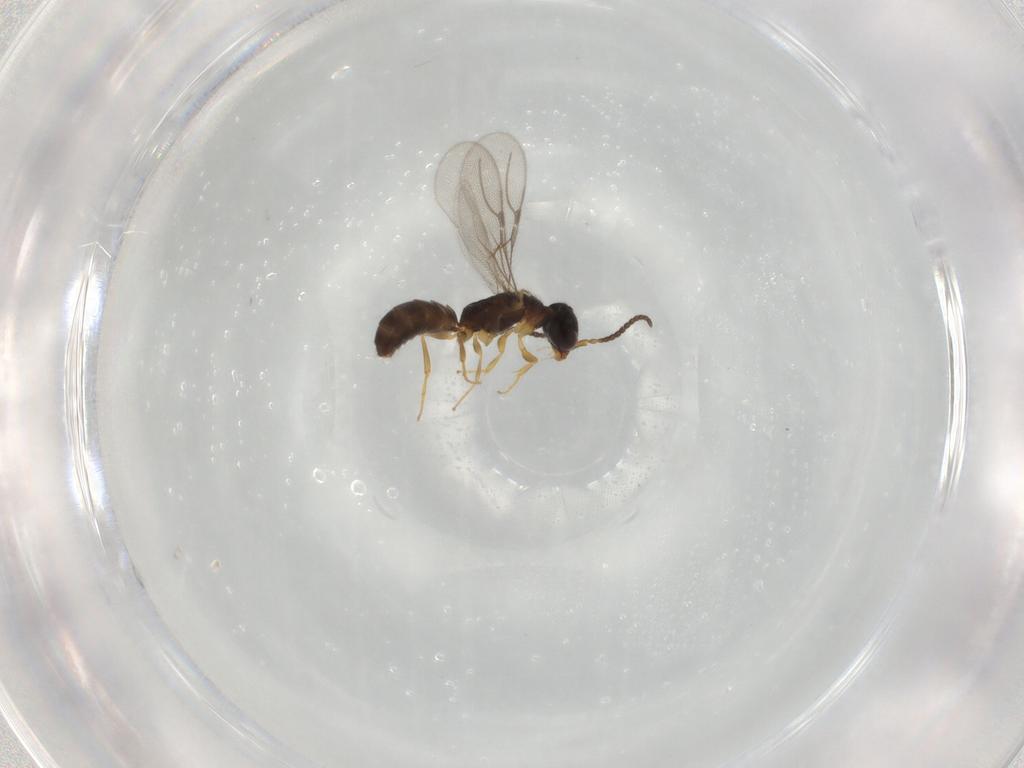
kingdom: Animalia
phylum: Arthropoda
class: Insecta
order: Hymenoptera
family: Bethylidae
